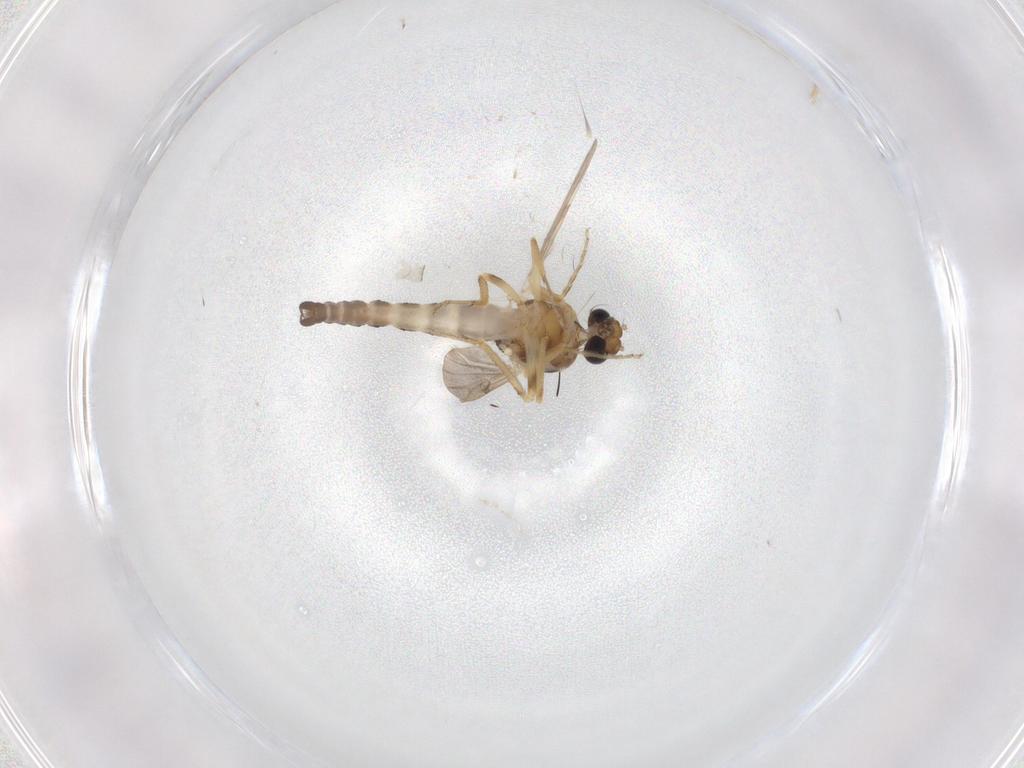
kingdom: Animalia
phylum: Arthropoda
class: Insecta
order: Diptera
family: Ceratopogonidae
